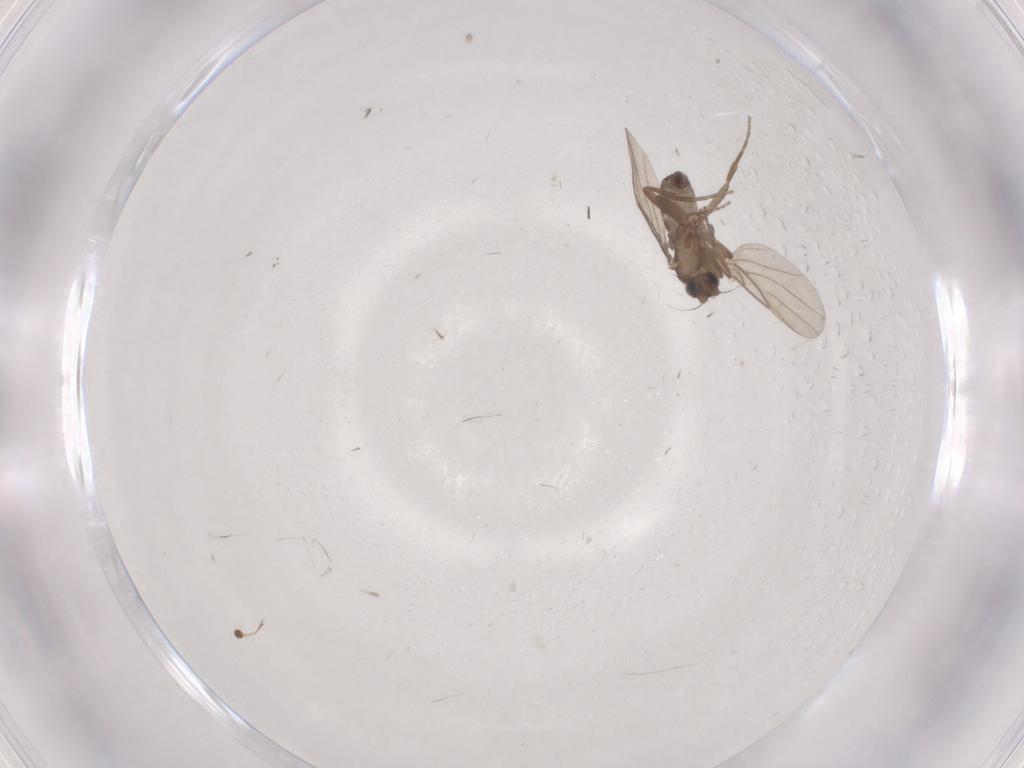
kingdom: Animalia
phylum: Arthropoda
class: Insecta
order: Diptera
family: Phoridae
